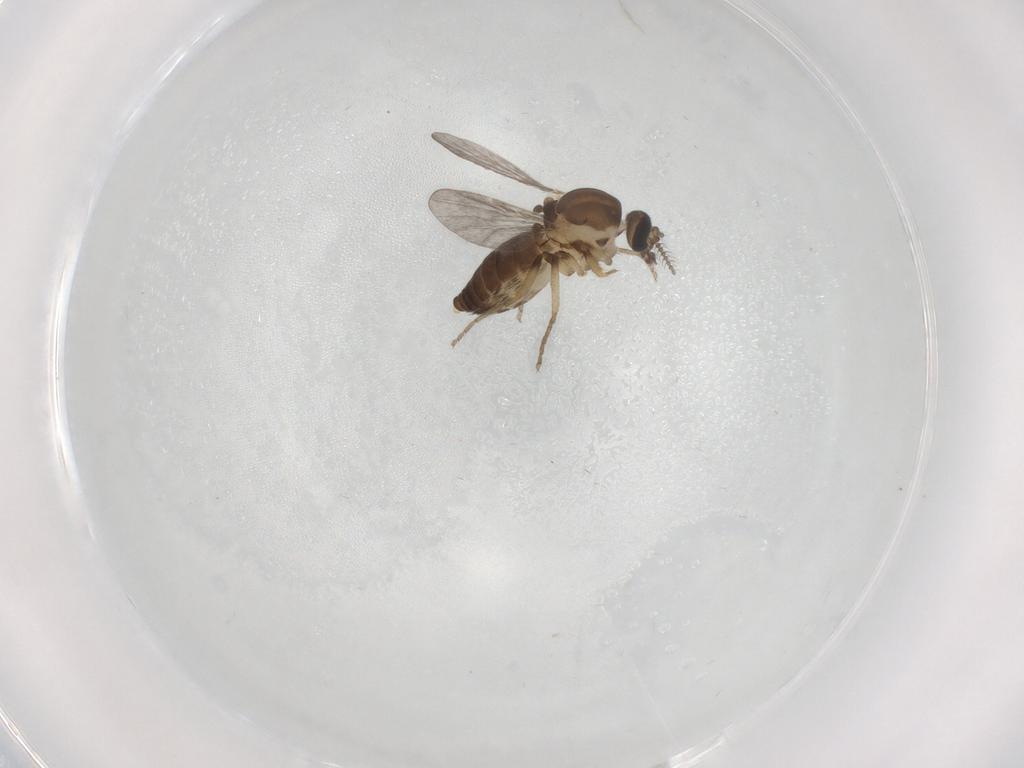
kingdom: Animalia
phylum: Arthropoda
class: Insecta
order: Diptera
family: Ceratopogonidae
